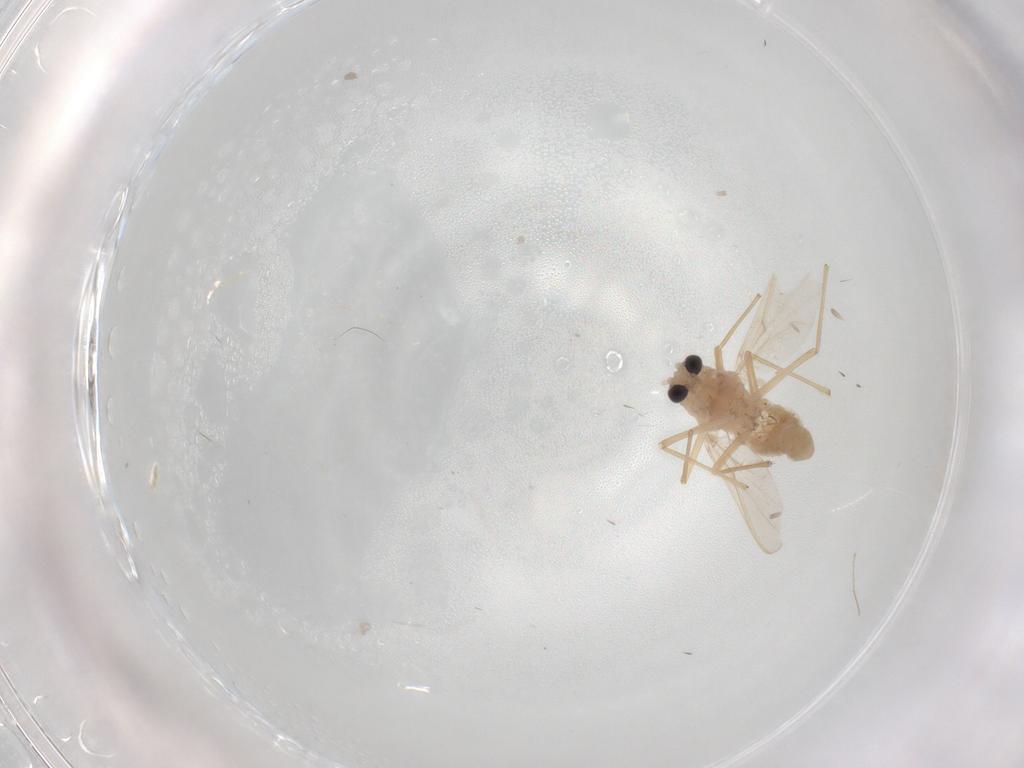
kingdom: Animalia
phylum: Arthropoda
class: Insecta
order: Diptera
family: Chironomidae
